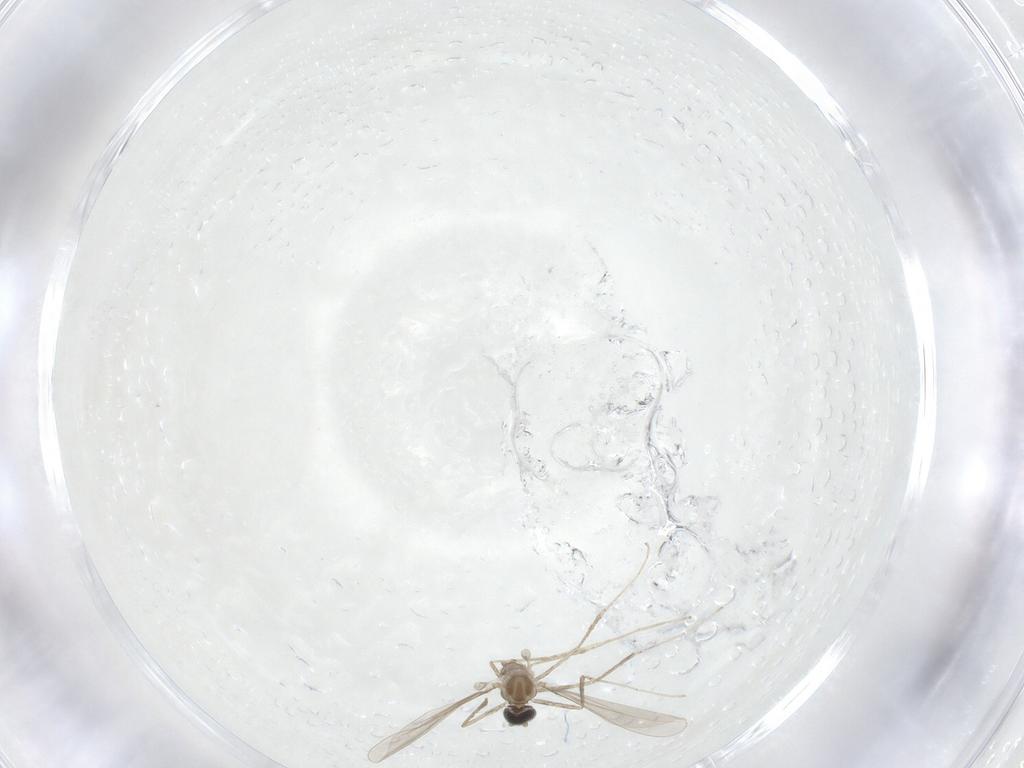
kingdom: Animalia
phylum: Arthropoda
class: Insecta
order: Diptera
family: Cecidomyiidae
